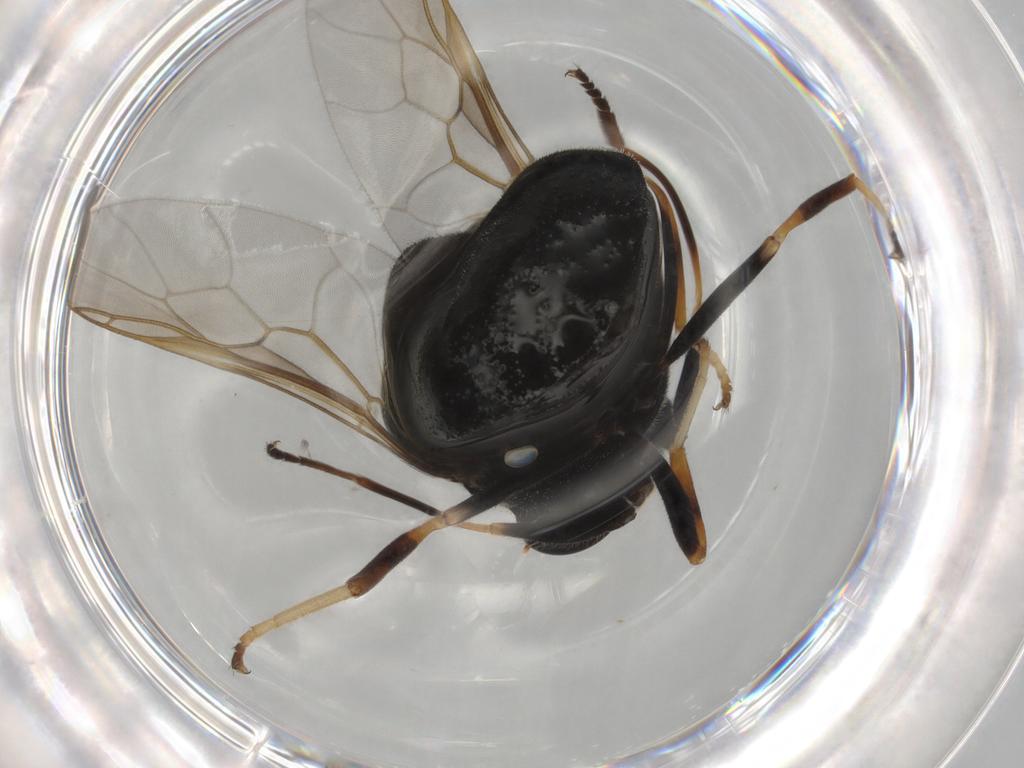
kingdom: Animalia
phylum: Arthropoda
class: Insecta
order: Diptera
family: Stratiomyidae
